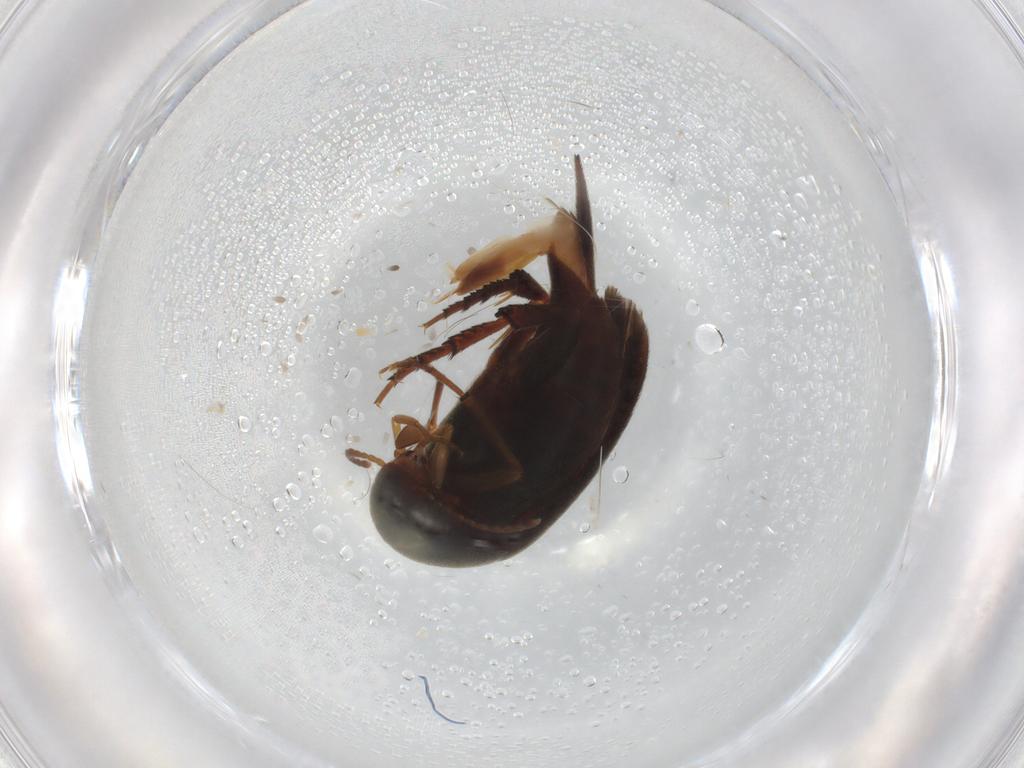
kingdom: Animalia
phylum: Arthropoda
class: Insecta
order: Coleoptera
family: Mordellidae
